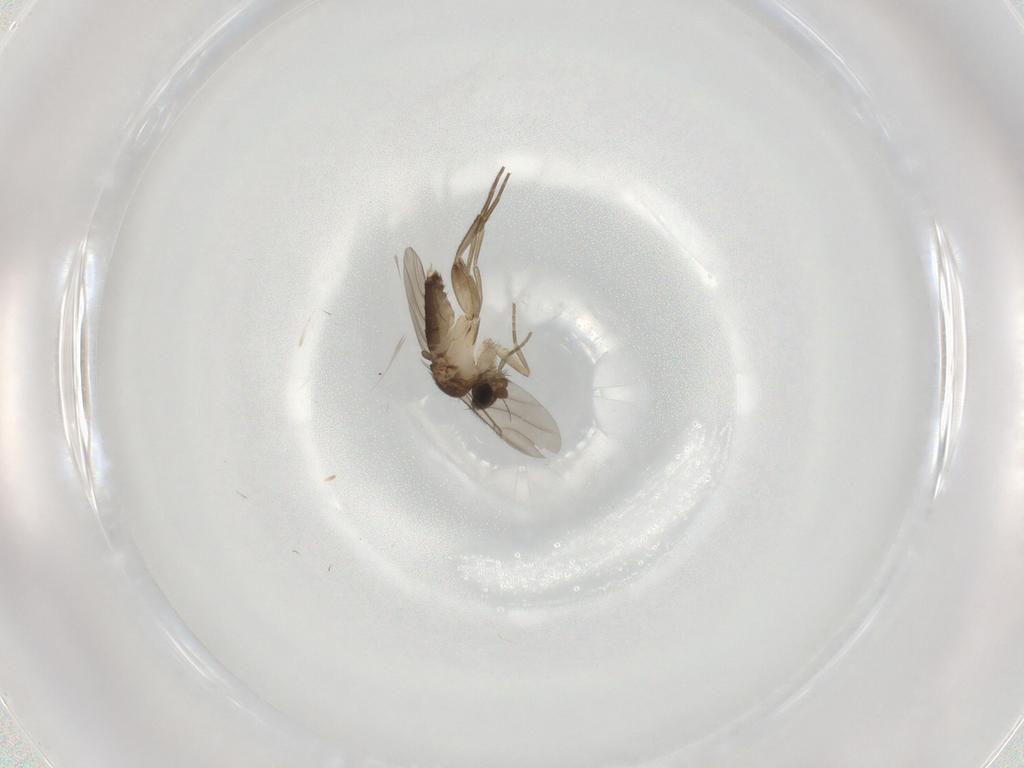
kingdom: Animalia
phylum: Arthropoda
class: Insecta
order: Diptera
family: Phoridae
